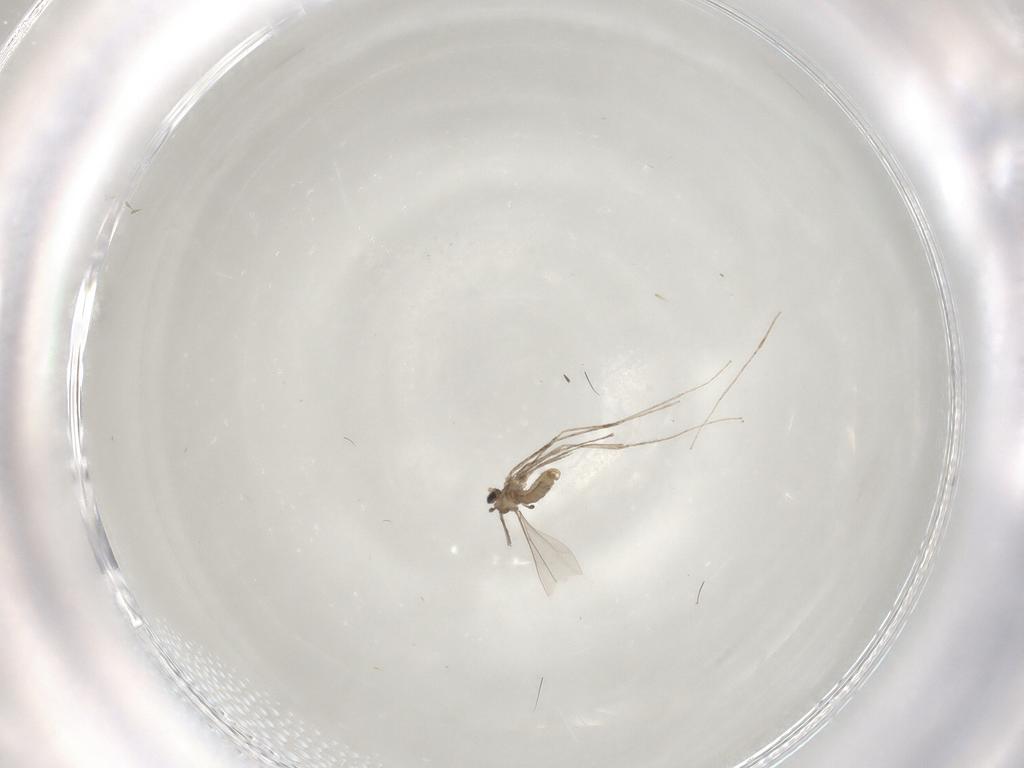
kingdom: Animalia
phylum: Arthropoda
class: Insecta
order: Diptera
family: Cecidomyiidae
